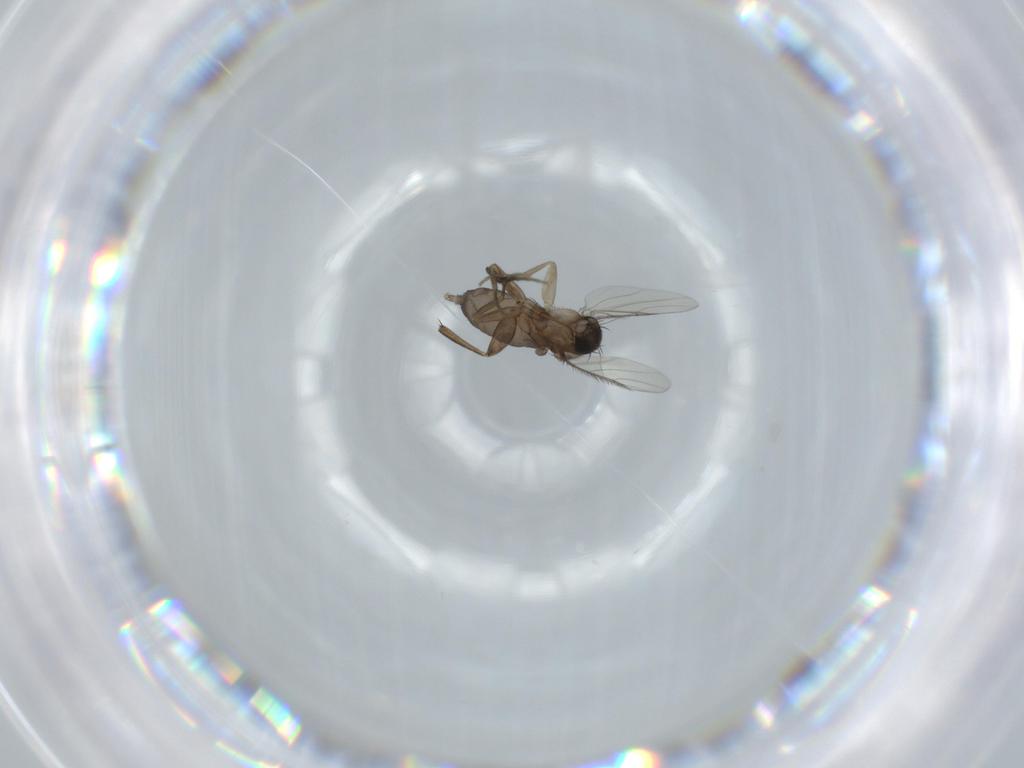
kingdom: Animalia
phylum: Arthropoda
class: Insecta
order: Diptera
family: Phoridae
